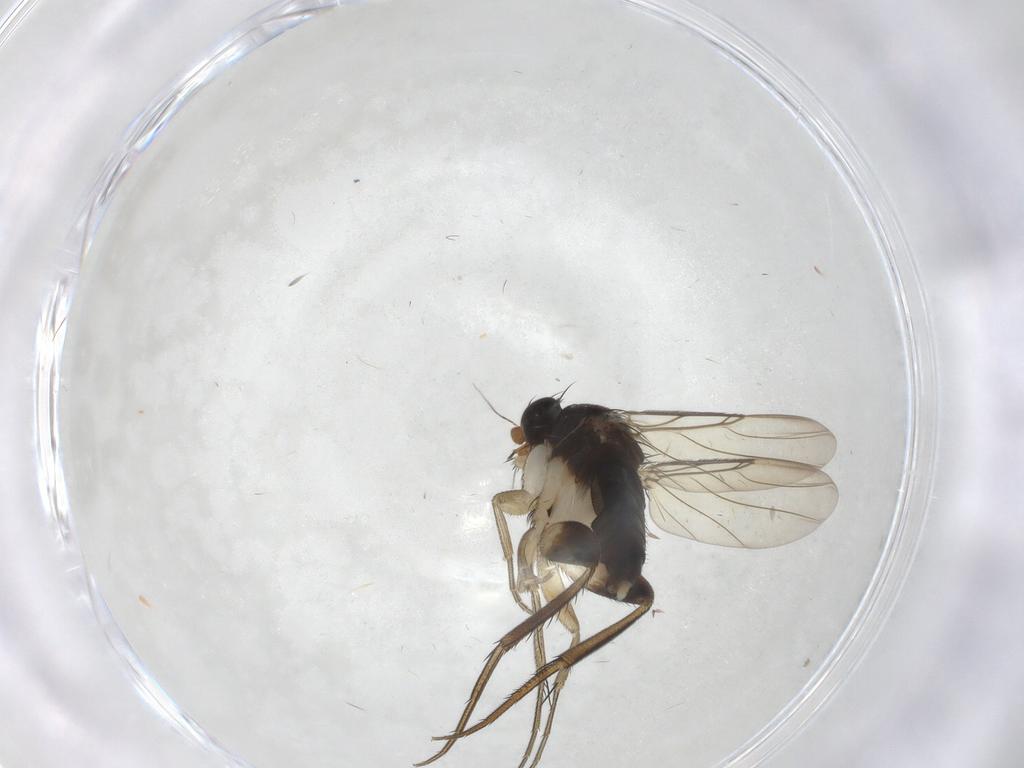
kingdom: Animalia
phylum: Arthropoda
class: Insecta
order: Diptera
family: Phoridae
